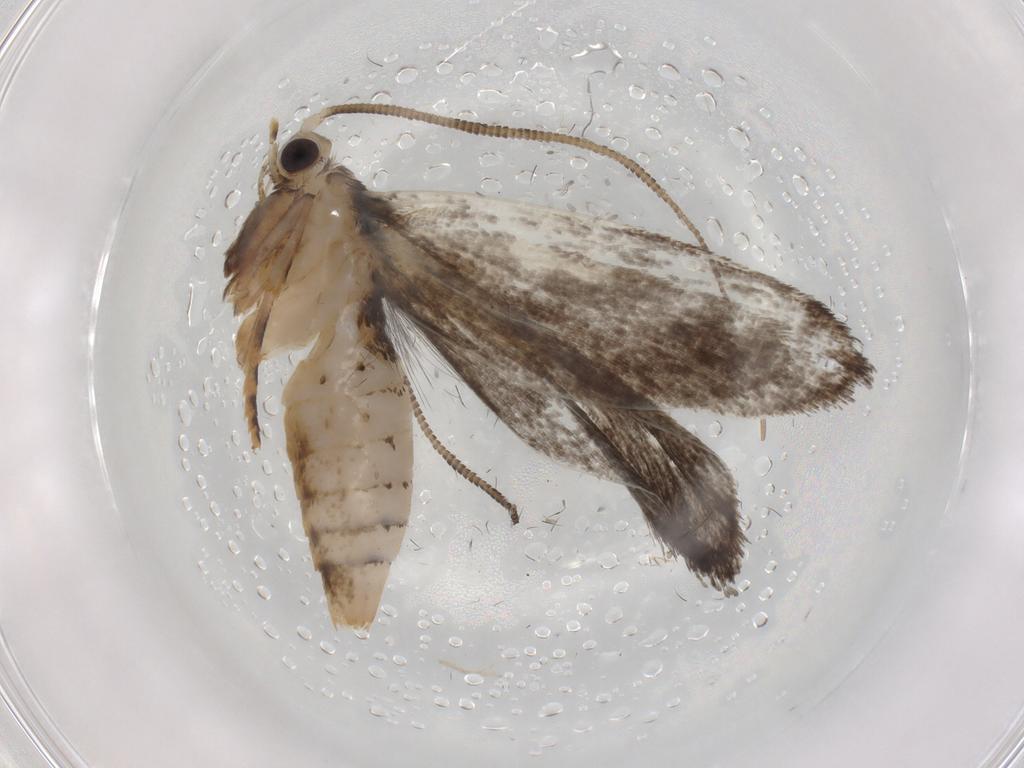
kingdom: Animalia
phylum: Arthropoda
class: Insecta
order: Lepidoptera
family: Tineidae
